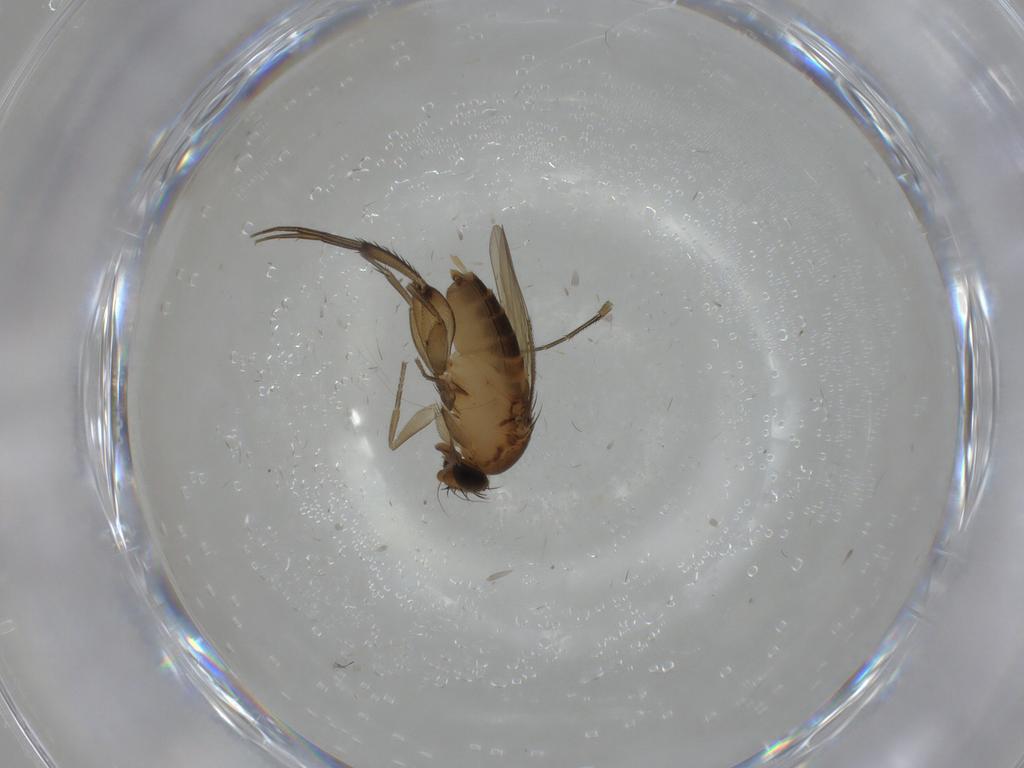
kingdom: Animalia
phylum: Arthropoda
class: Insecta
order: Diptera
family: Phoridae
